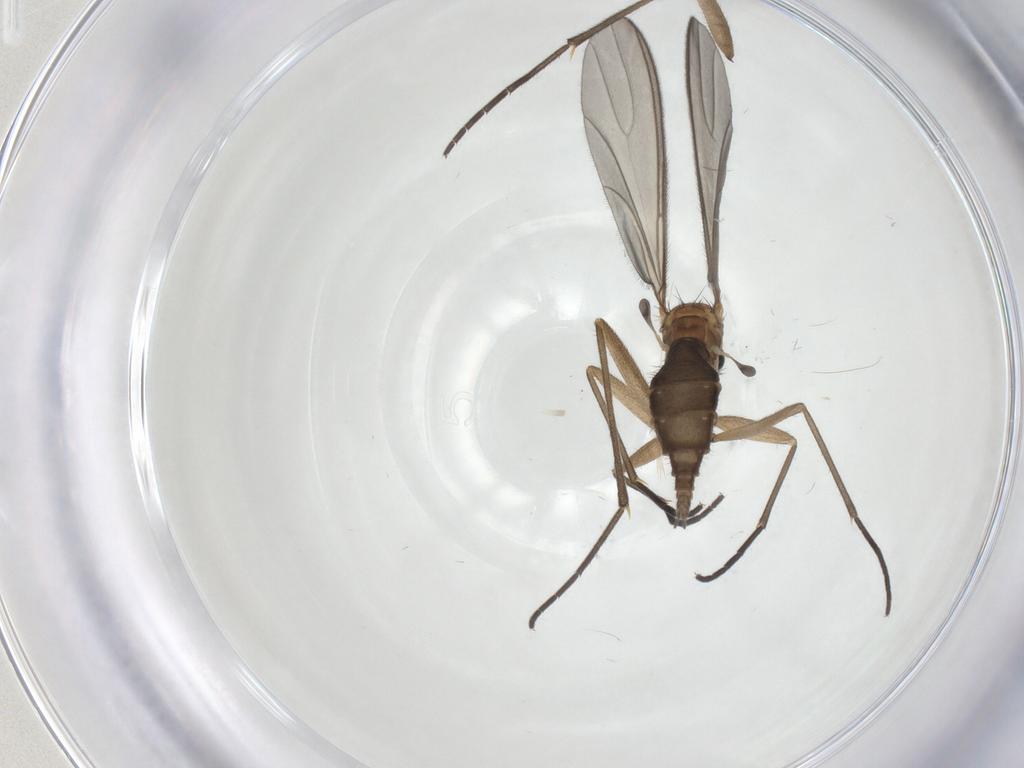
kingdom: Animalia
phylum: Arthropoda
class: Insecta
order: Diptera
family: Sciaridae
